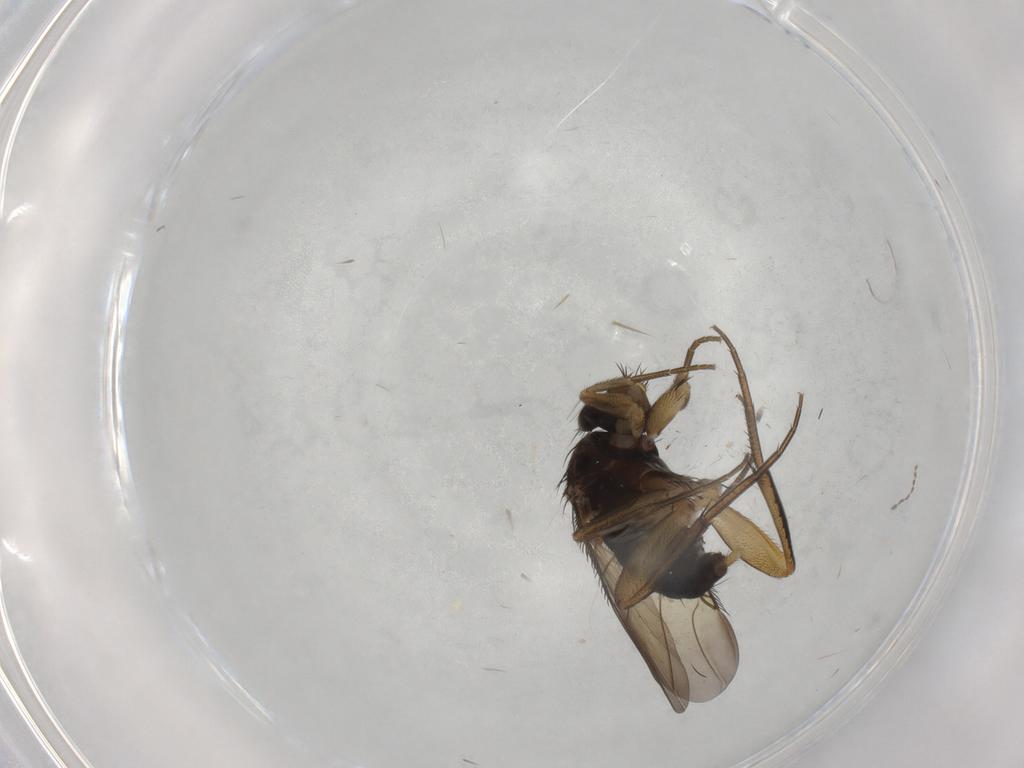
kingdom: Animalia
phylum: Arthropoda
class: Insecta
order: Diptera
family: Phoridae
